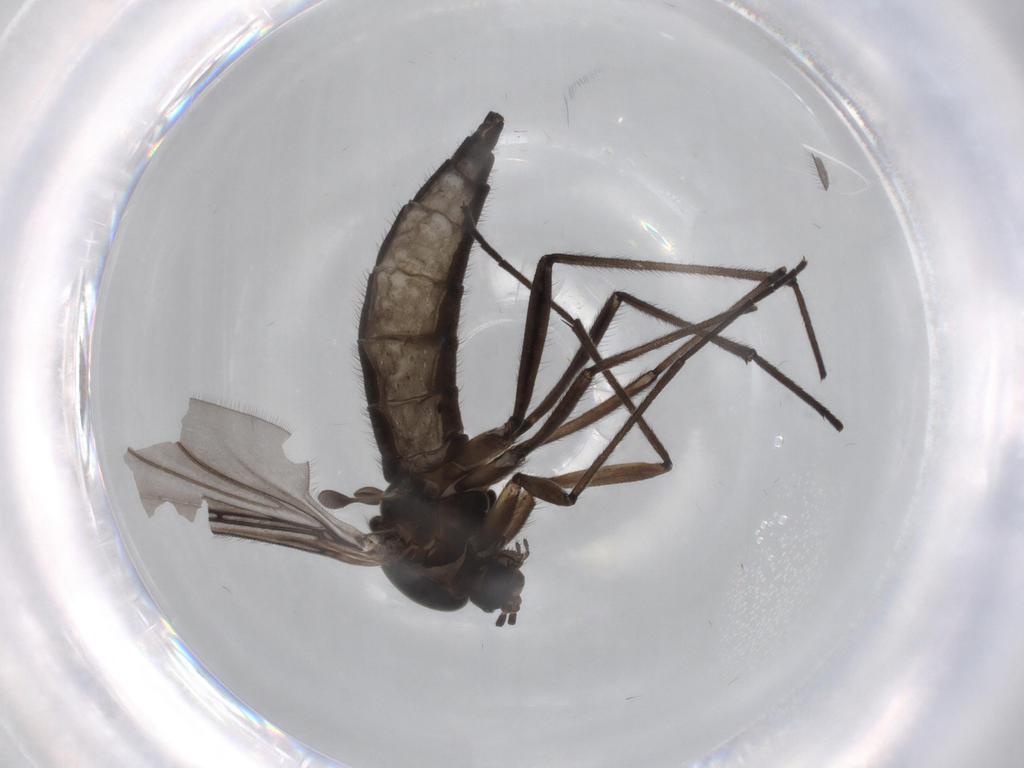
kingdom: Animalia
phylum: Arthropoda
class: Insecta
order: Diptera
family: Sciaridae
